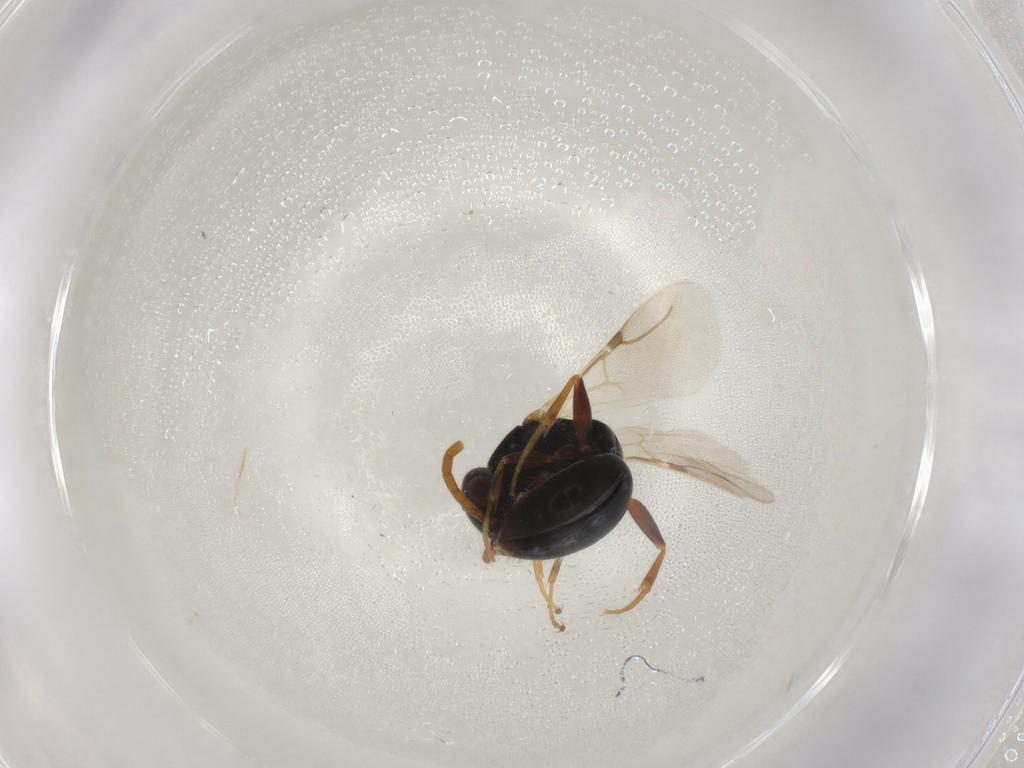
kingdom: Animalia
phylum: Arthropoda
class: Insecta
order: Hymenoptera
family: Bethylidae
